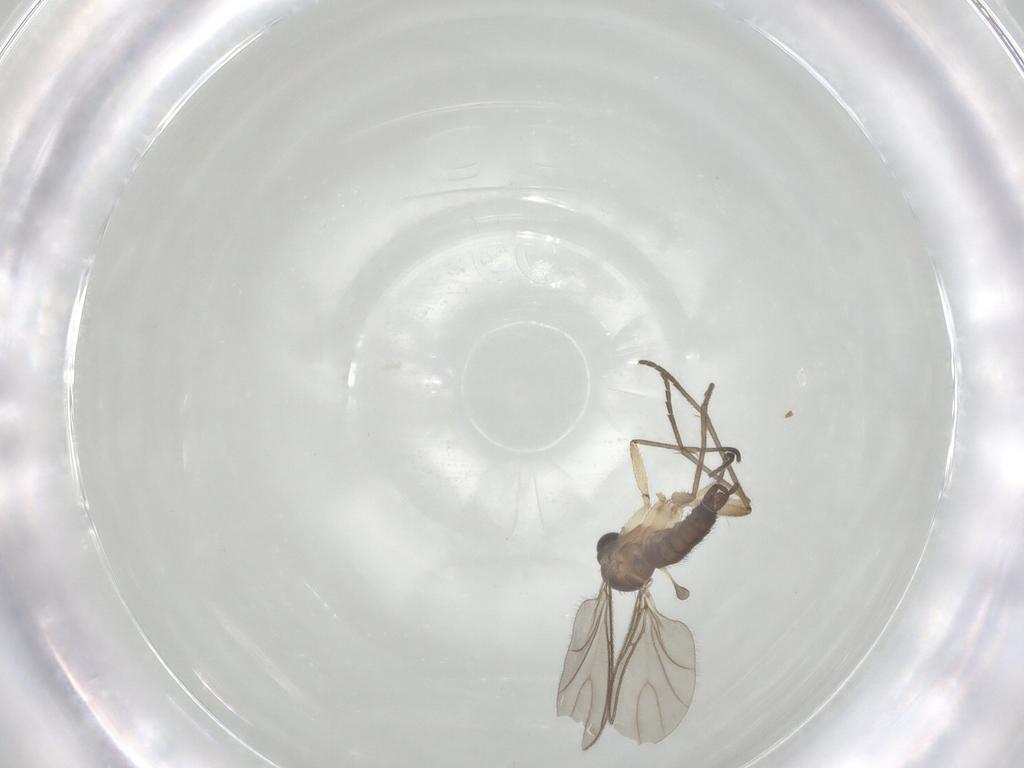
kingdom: Animalia
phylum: Arthropoda
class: Insecta
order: Diptera
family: Sciaridae
